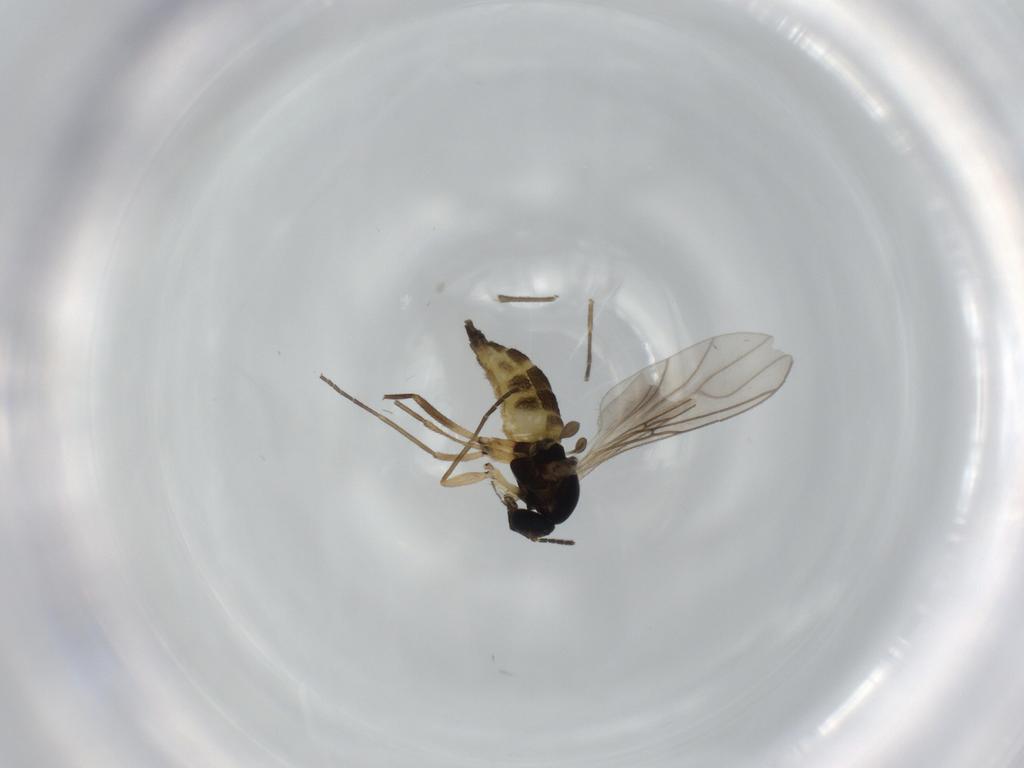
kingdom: Animalia
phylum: Arthropoda
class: Insecta
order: Diptera
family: Sciaridae
